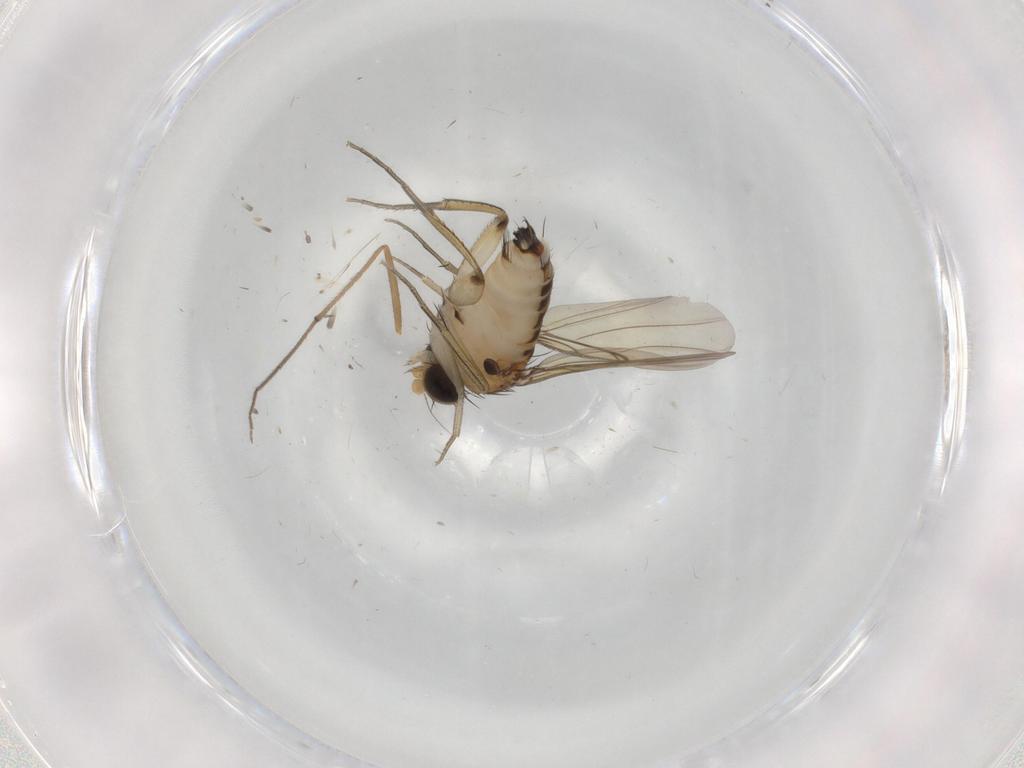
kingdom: Animalia
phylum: Arthropoda
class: Insecta
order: Diptera
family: Phoridae
